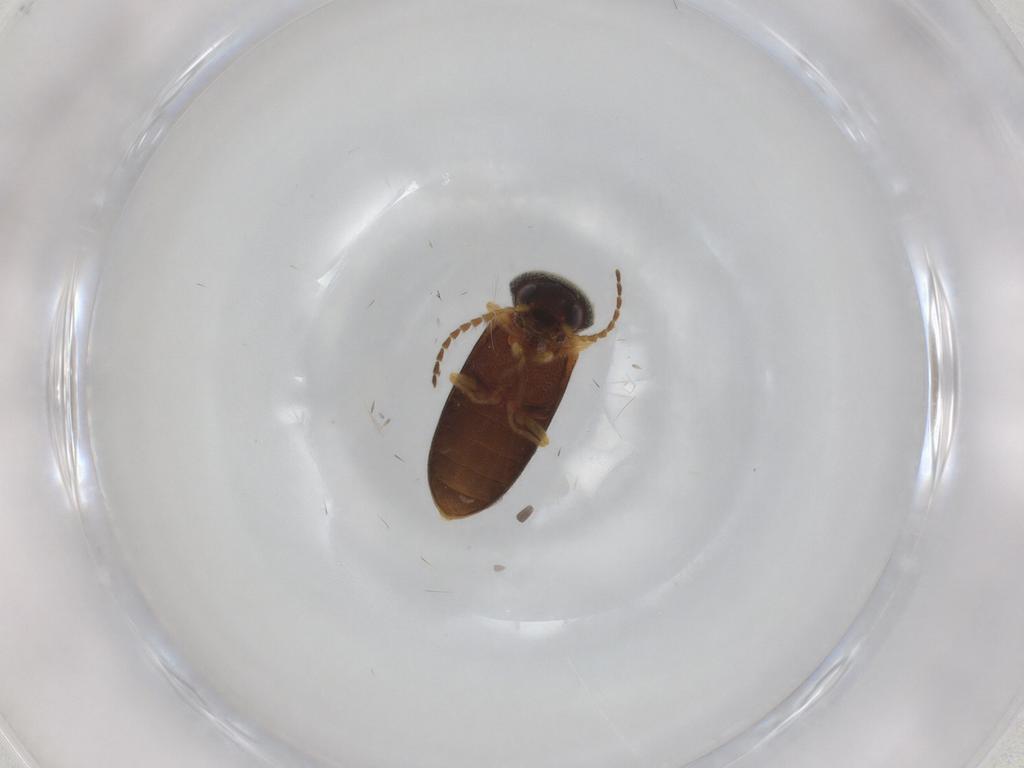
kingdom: Animalia
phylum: Arthropoda
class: Insecta
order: Coleoptera
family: Elateridae
